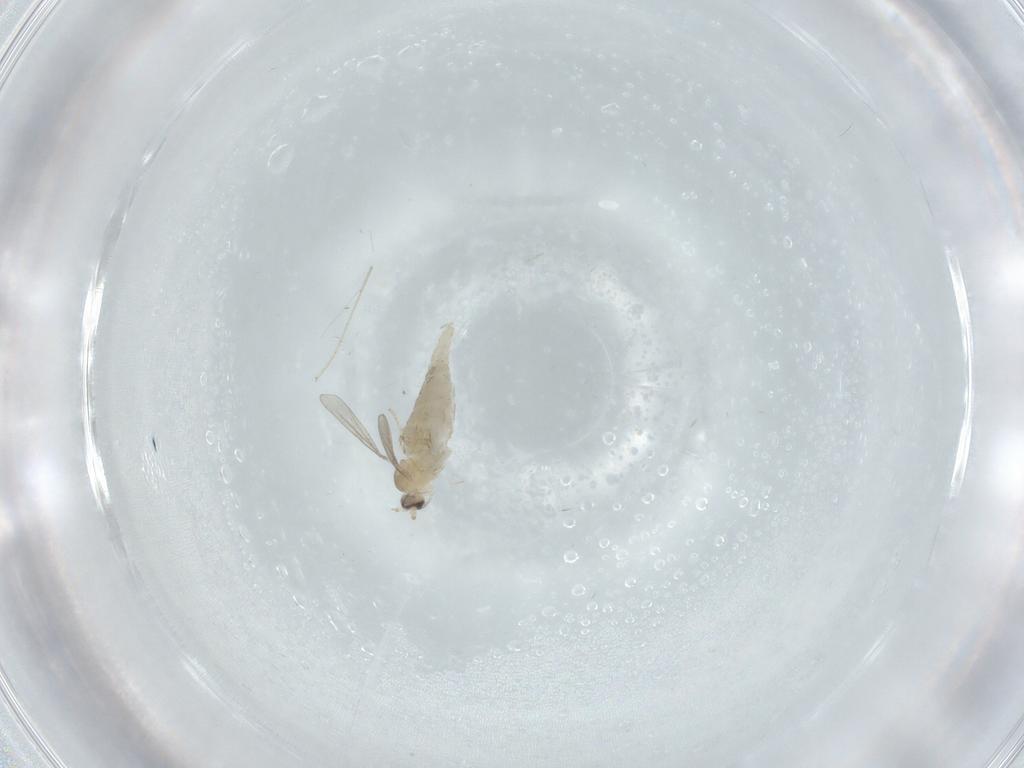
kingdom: Animalia
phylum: Arthropoda
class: Insecta
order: Diptera
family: Cecidomyiidae
